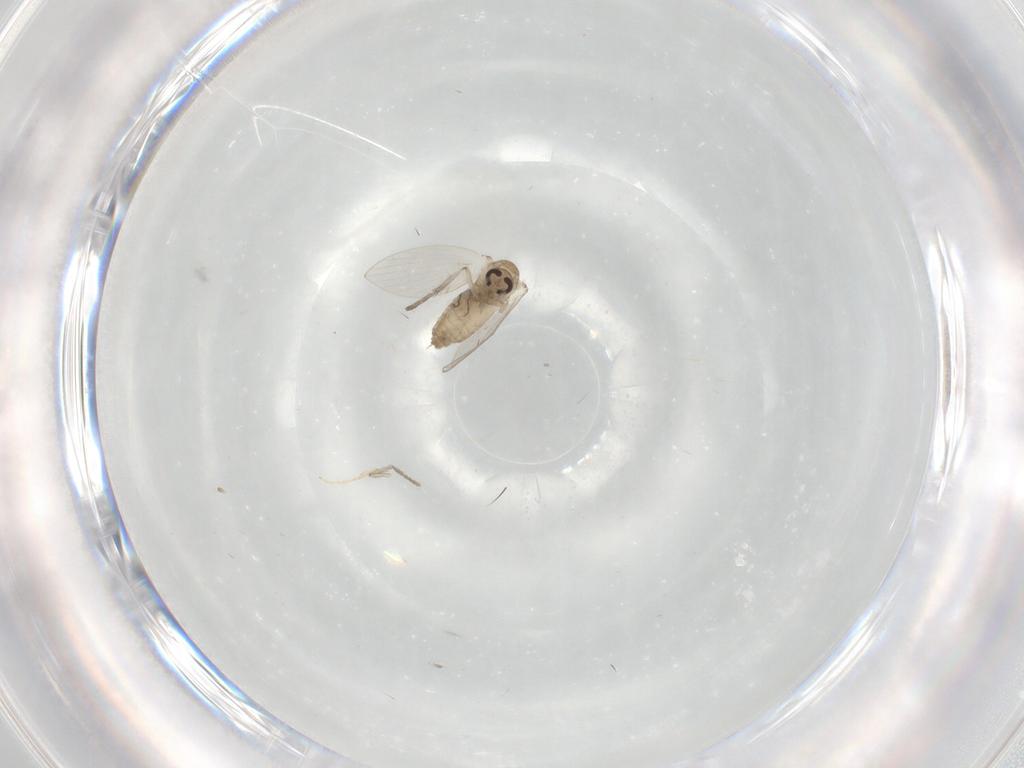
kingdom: Animalia
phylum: Arthropoda
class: Insecta
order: Diptera
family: Psychodidae
